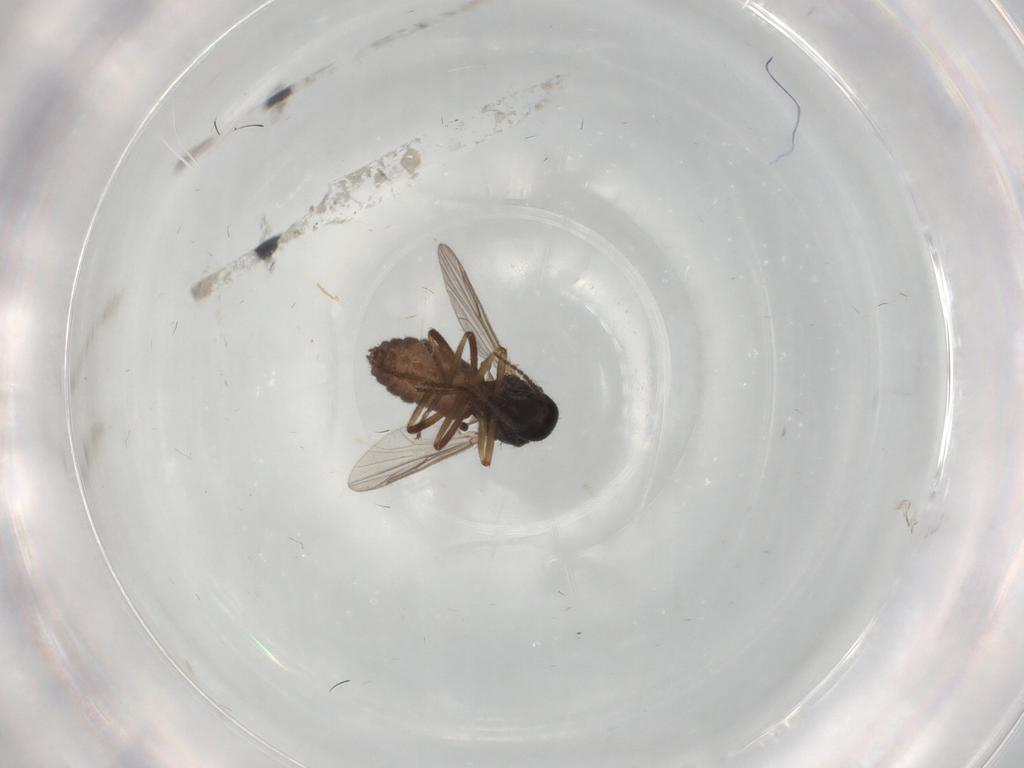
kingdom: Animalia
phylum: Arthropoda
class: Insecta
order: Diptera
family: Ceratopogonidae
